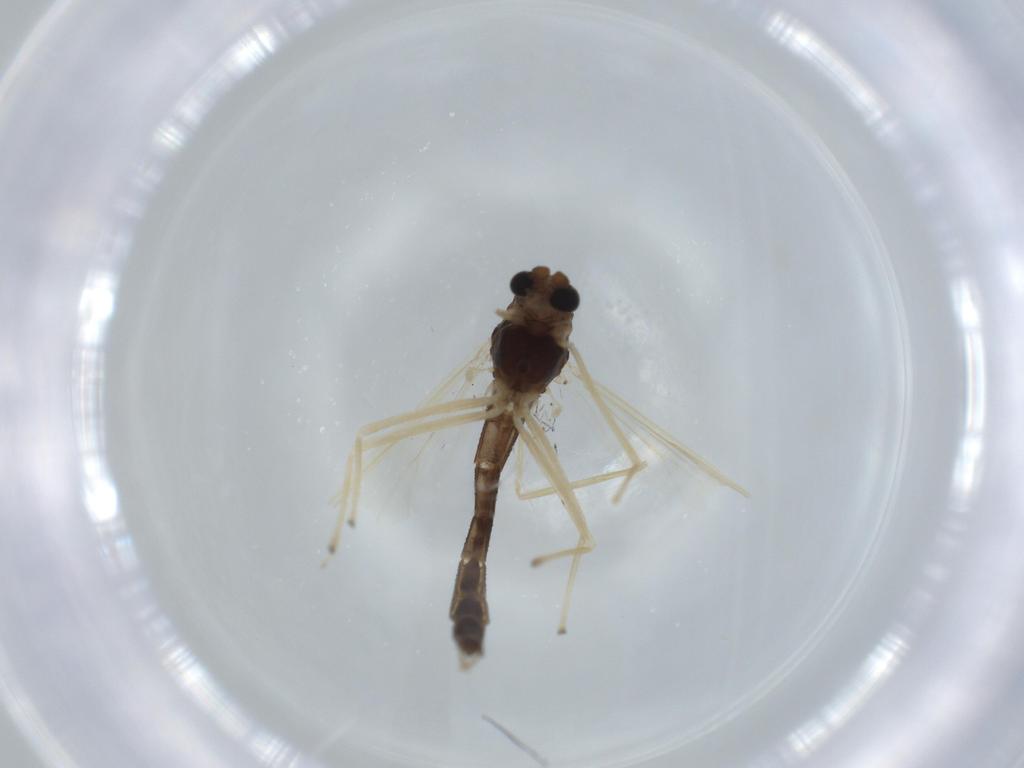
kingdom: Animalia
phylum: Arthropoda
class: Insecta
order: Diptera
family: Chironomidae
